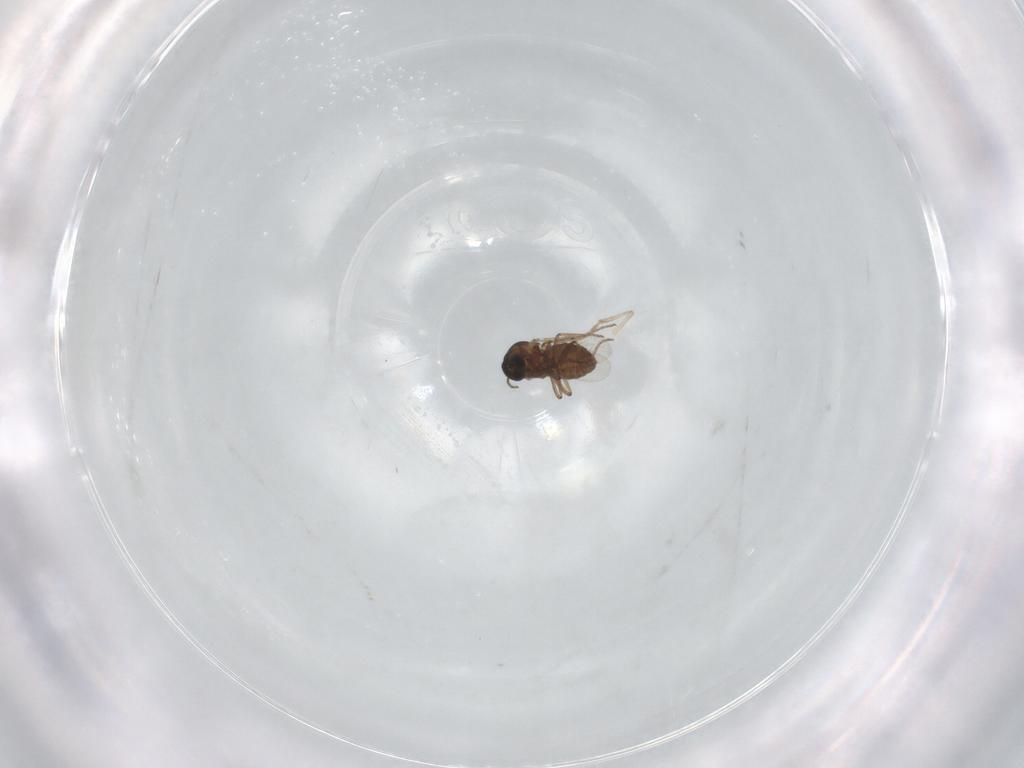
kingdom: Animalia
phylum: Arthropoda
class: Insecta
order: Diptera
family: Ceratopogonidae
